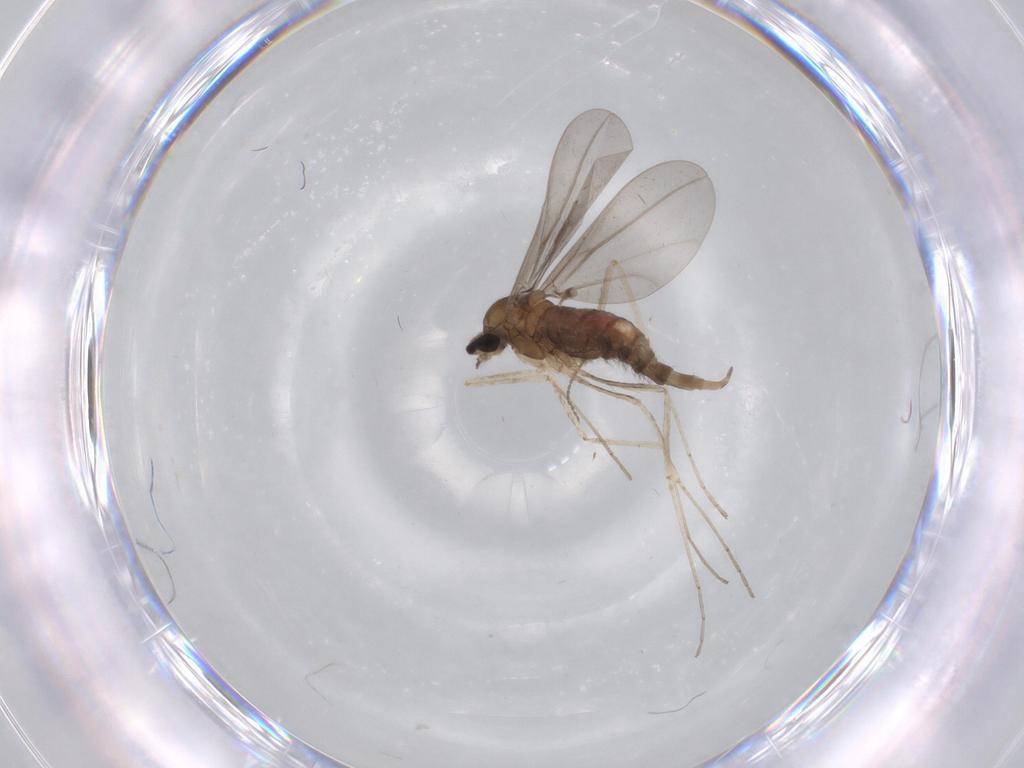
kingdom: Animalia
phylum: Arthropoda
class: Insecta
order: Diptera
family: Cecidomyiidae
